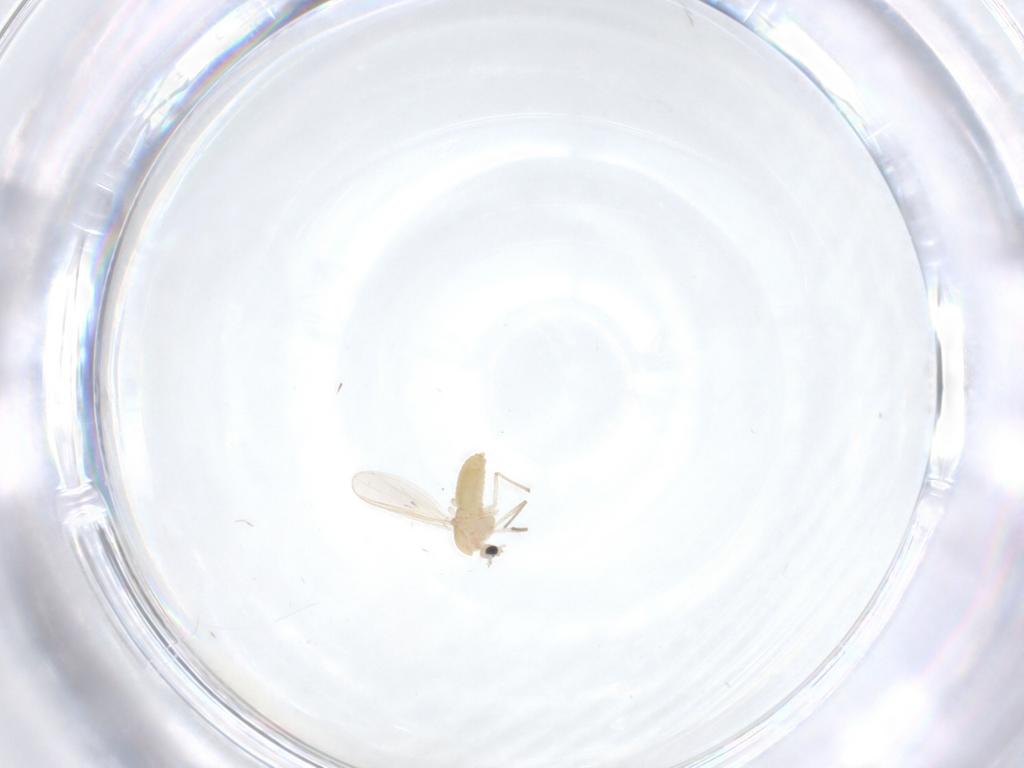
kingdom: Animalia
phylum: Arthropoda
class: Insecta
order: Diptera
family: Chironomidae
